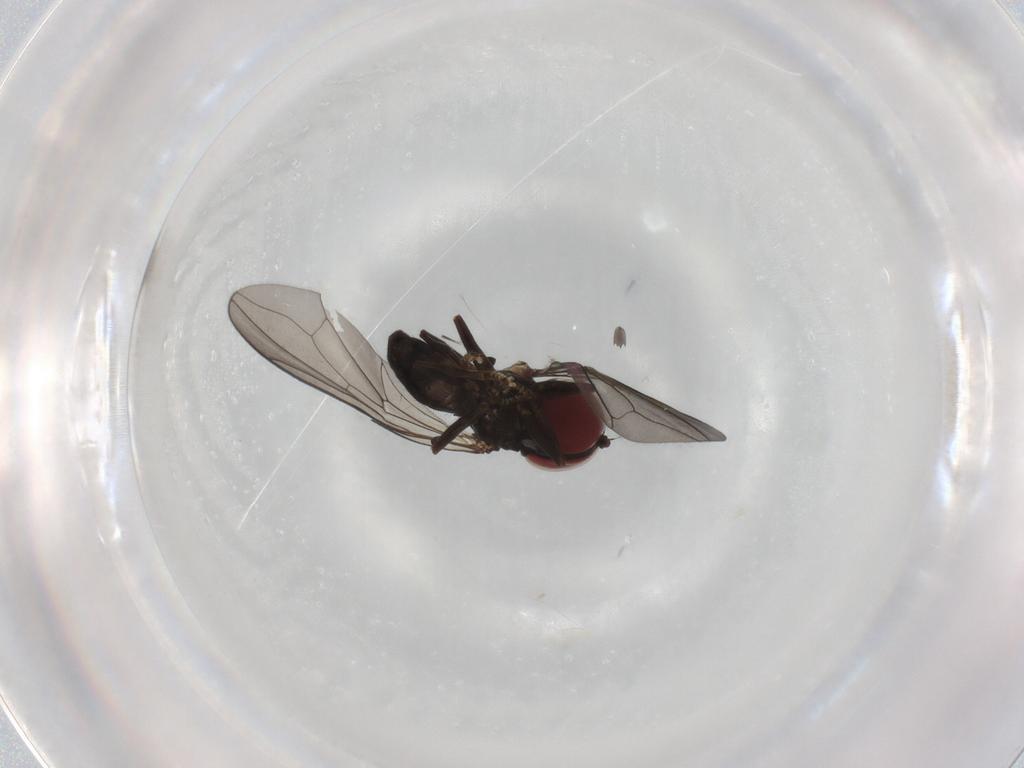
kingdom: Animalia
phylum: Arthropoda
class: Insecta
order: Diptera
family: Pipunculidae
